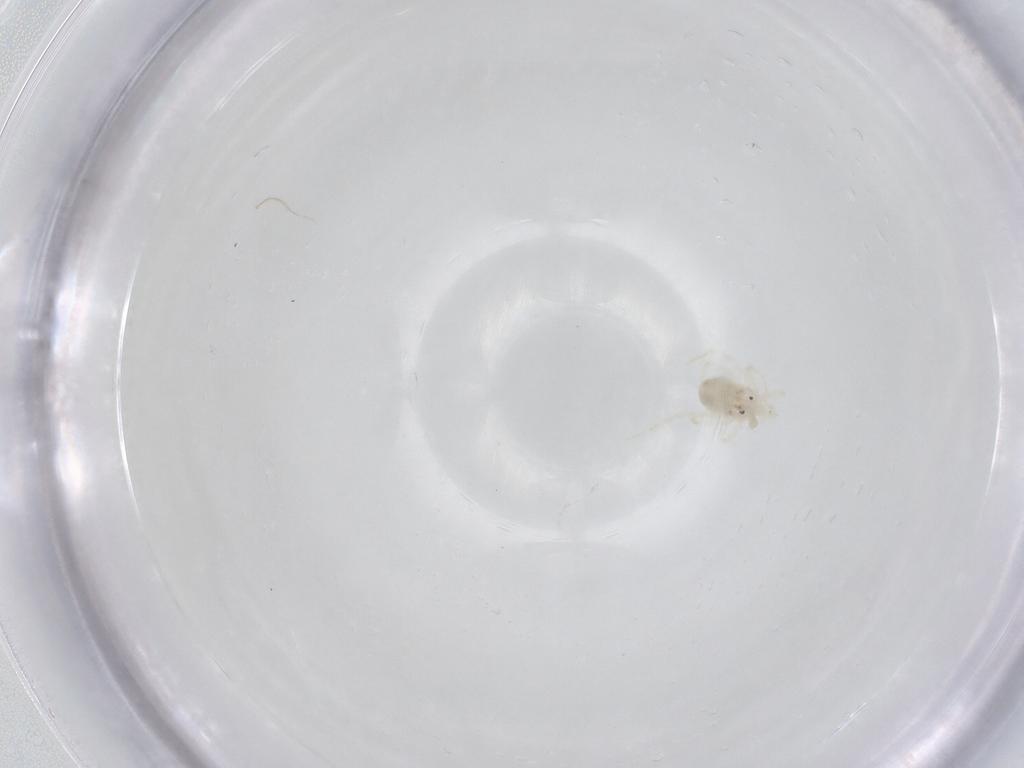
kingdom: Animalia
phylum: Arthropoda
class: Arachnida
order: Trombidiformes
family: Anystidae
